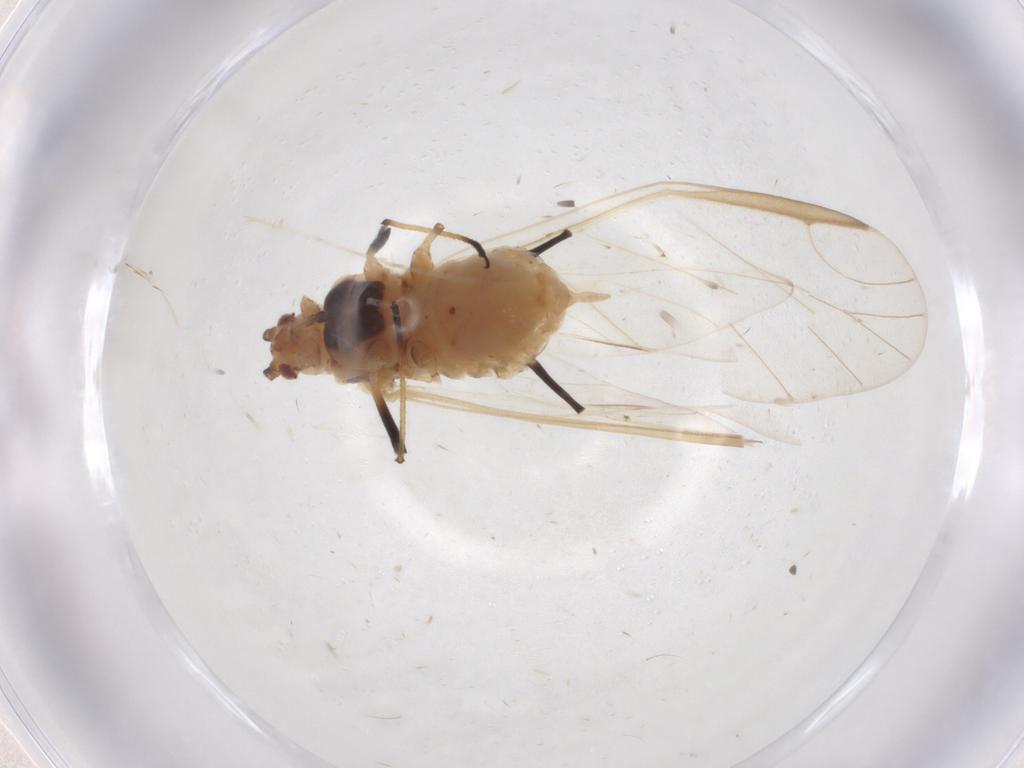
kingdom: Animalia
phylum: Arthropoda
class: Insecta
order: Hemiptera
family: Aphididae
